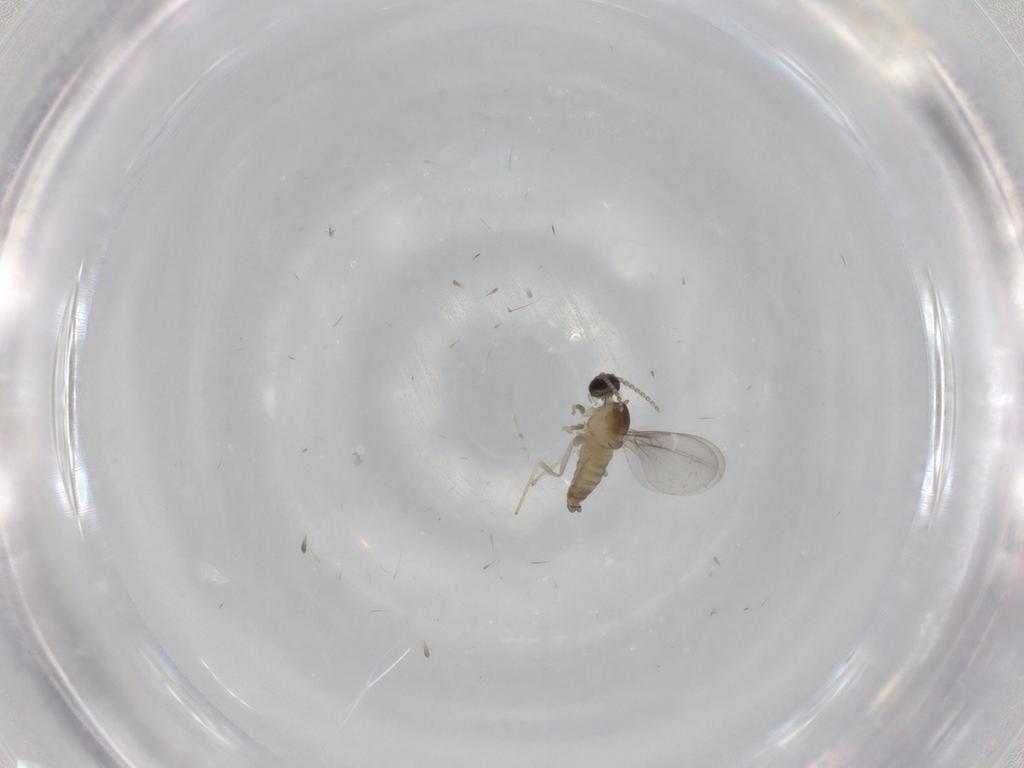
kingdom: Animalia
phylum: Arthropoda
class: Insecta
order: Diptera
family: Cecidomyiidae
